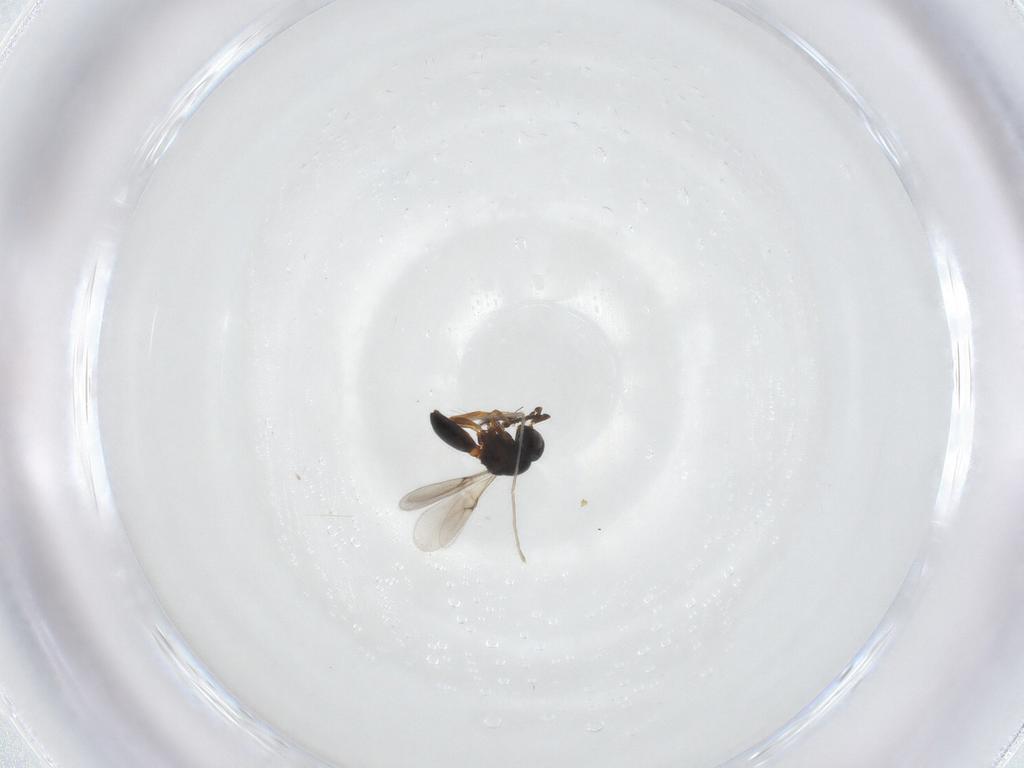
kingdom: Animalia
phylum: Arthropoda
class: Insecta
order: Hymenoptera
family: Scelionidae
